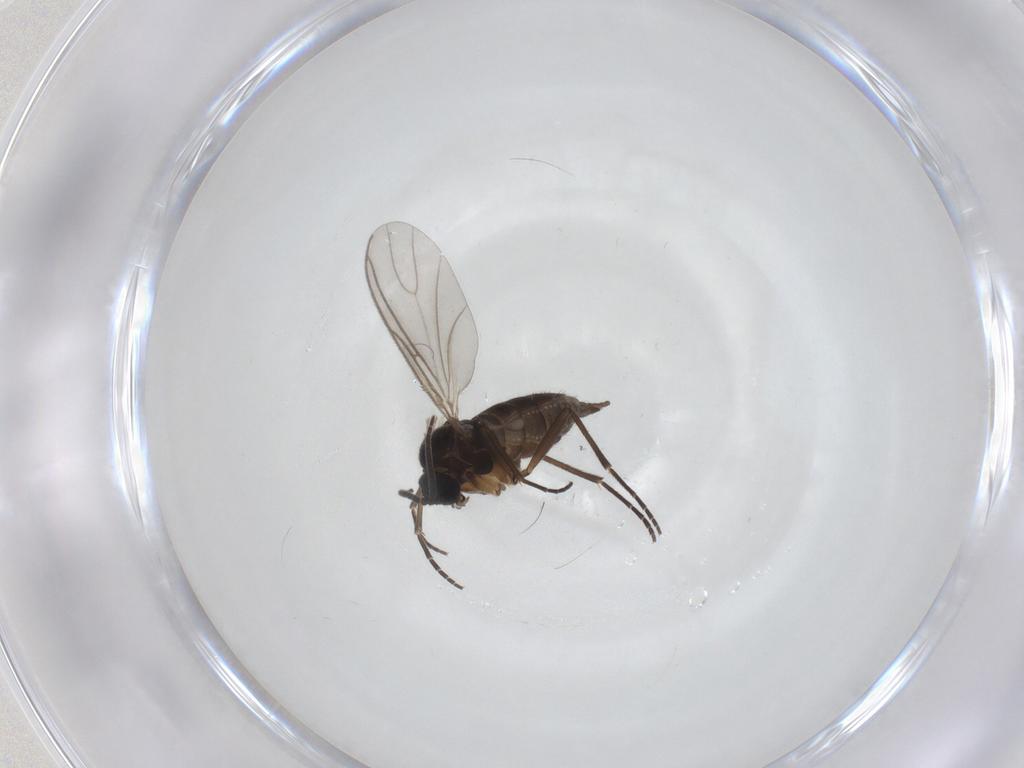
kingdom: Animalia
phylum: Arthropoda
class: Insecta
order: Diptera
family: Sciaridae
